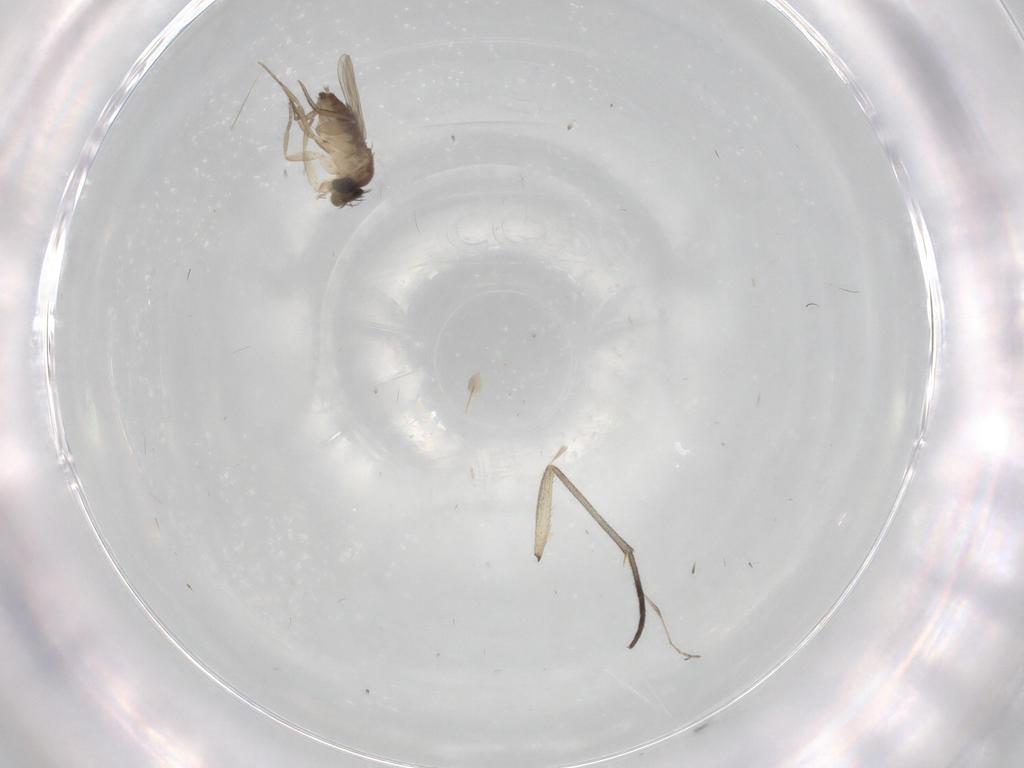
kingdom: Animalia
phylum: Arthropoda
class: Insecta
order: Diptera
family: Phoridae
